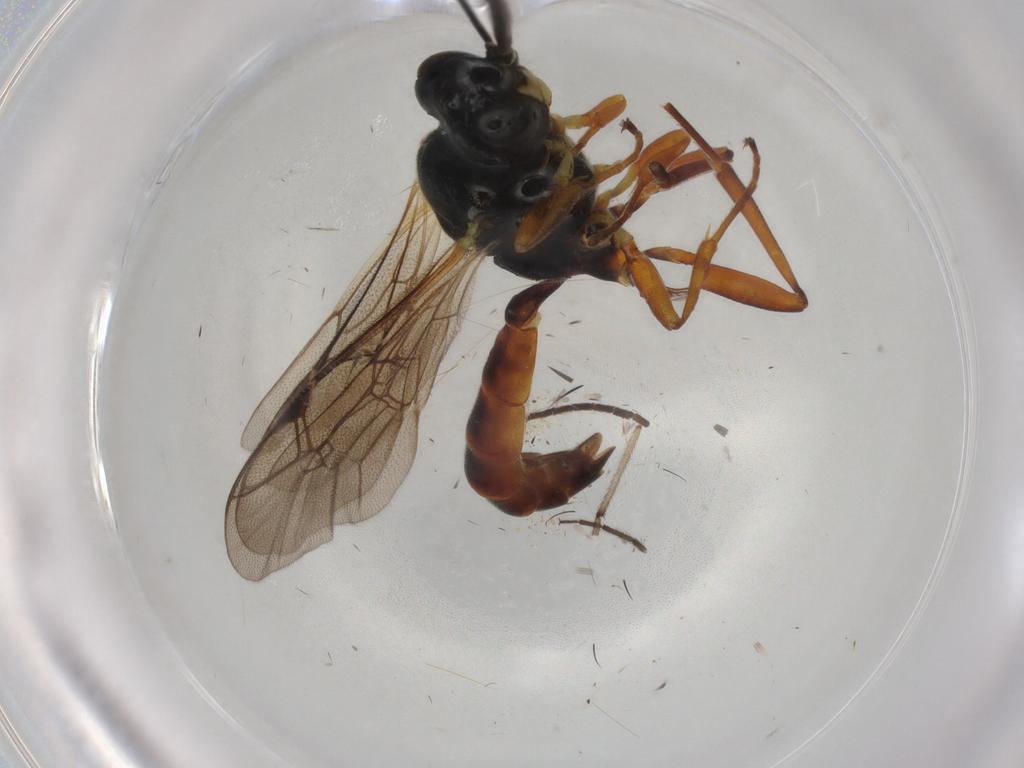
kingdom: Animalia
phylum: Arthropoda
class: Insecta
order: Hymenoptera
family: Ichneumonidae
